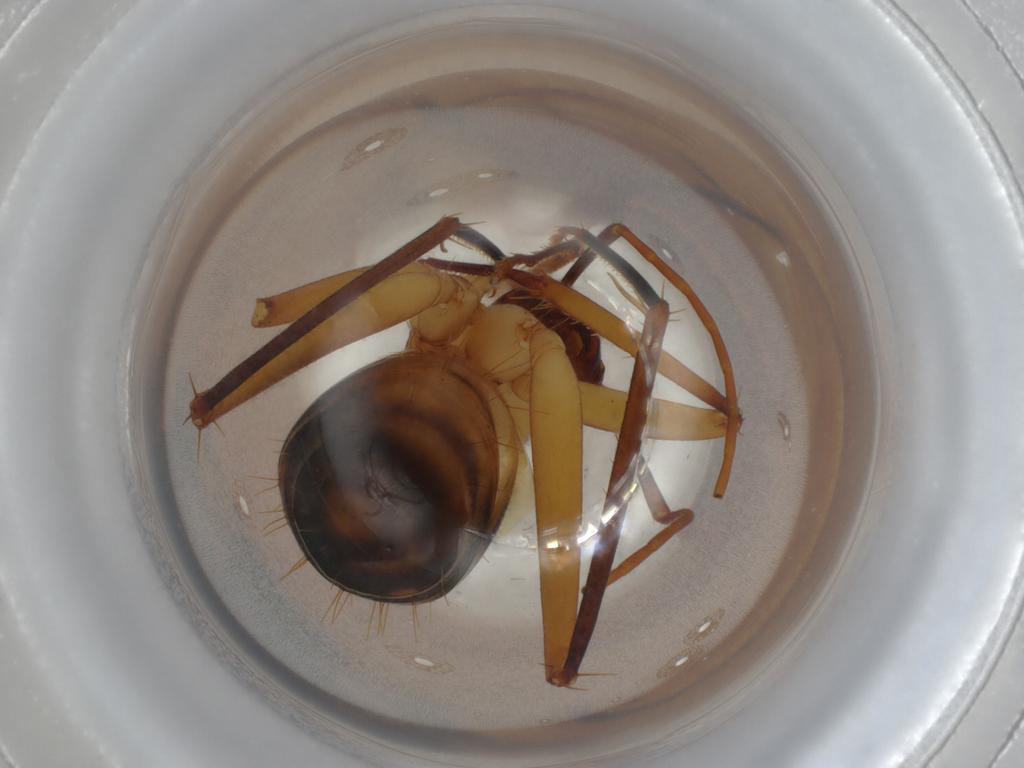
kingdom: Animalia
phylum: Arthropoda
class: Insecta
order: Hymenoptera
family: Formicidae
